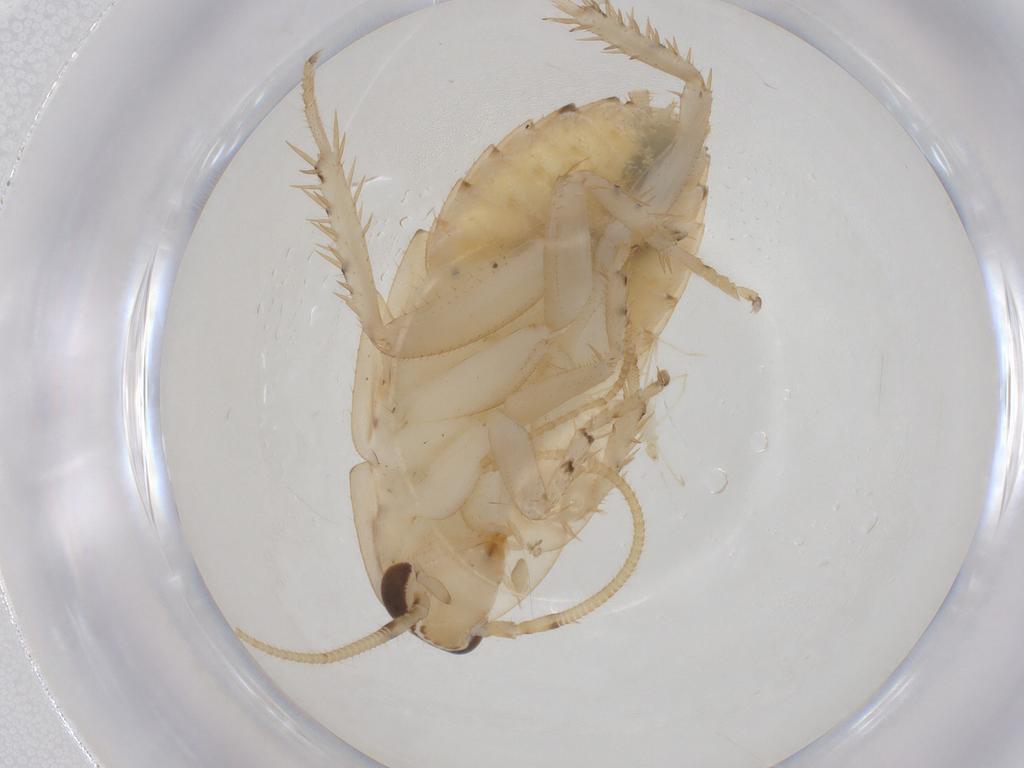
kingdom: Animalia
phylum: Arthropoda
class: Insecta
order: Blattodea
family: Ectobiidae
